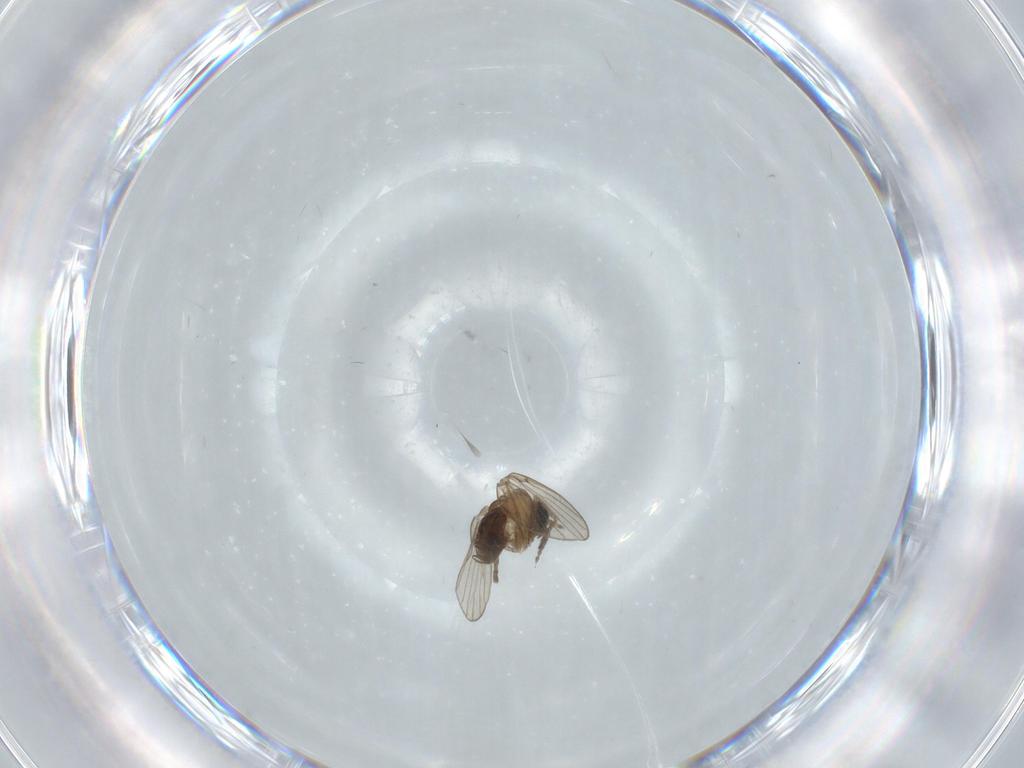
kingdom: Animalia
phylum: Arthropoda
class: Insecta
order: Diptera
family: Psychodidae
